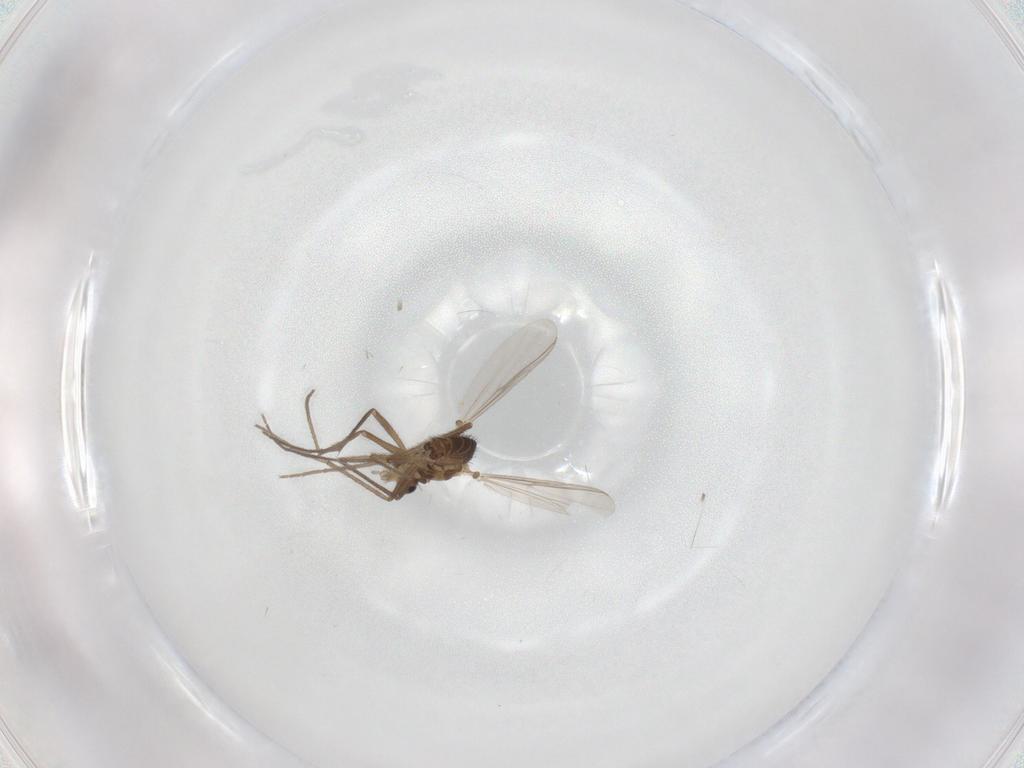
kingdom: Animalia
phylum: Arthropoda
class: Insecta
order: Diptera
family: Chironomidae
